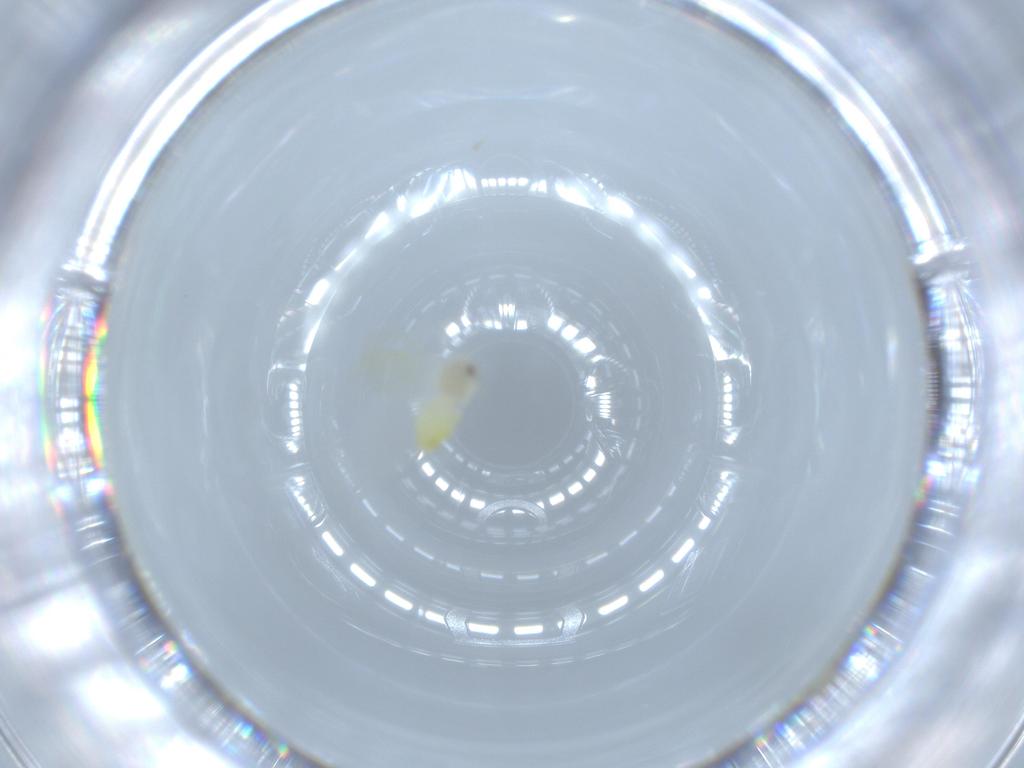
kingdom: Animalia
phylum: Arthropoda
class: Insecta
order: Hemiptera
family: Aleyrodidae
